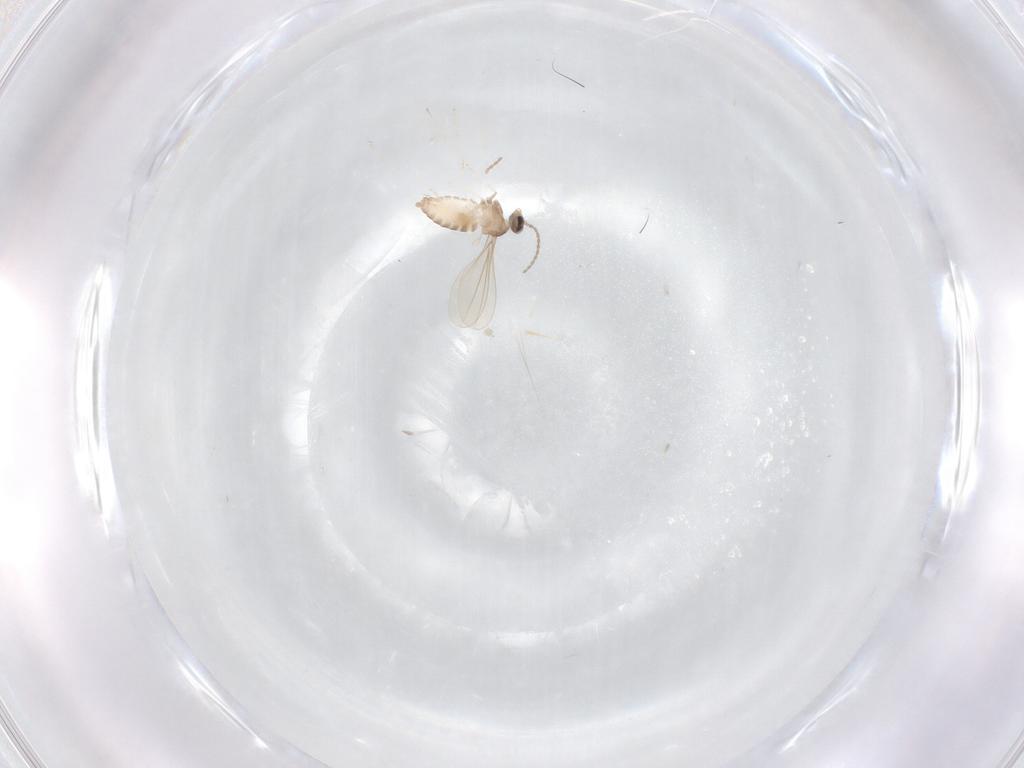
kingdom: Animalia
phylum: Arthropoda
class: Insecta
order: Diptera
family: Cecidomyiidae
